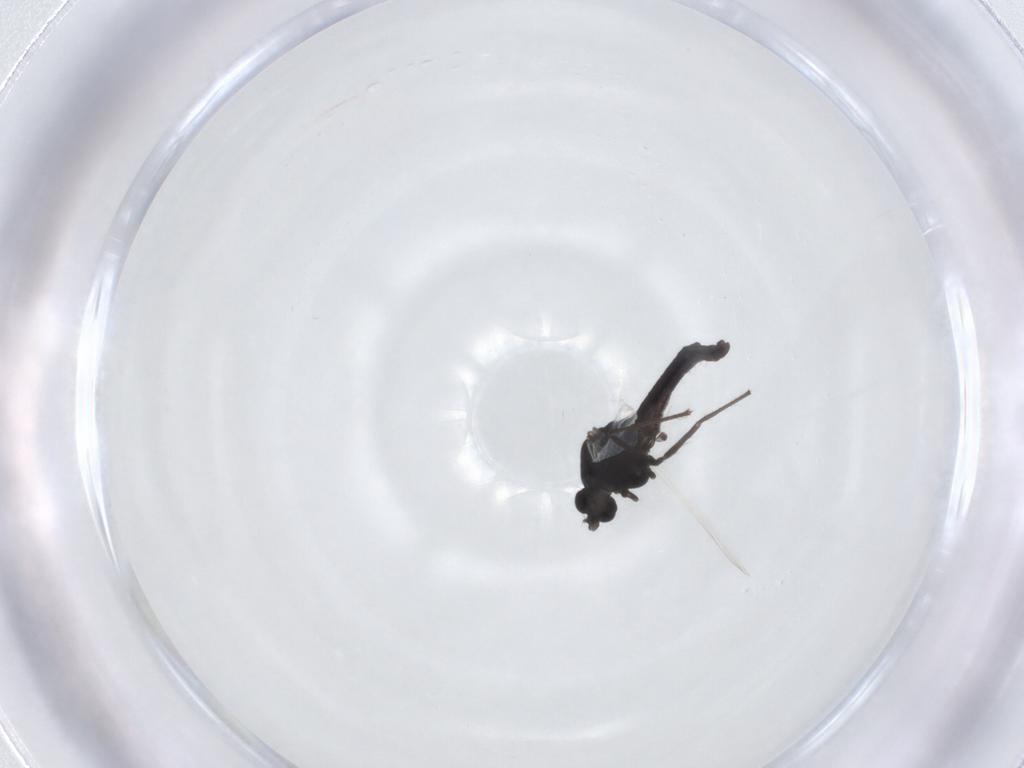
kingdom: Animalia
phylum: Arthropoda
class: Insecta
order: Diptera
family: Chironomidae
